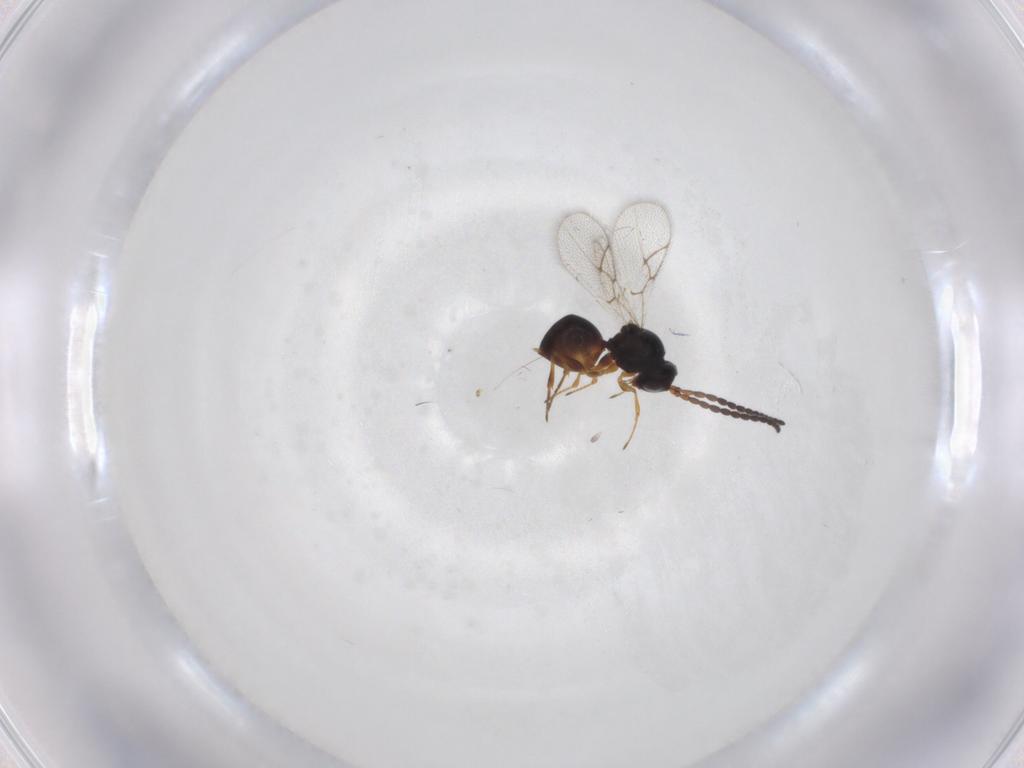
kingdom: Animalia
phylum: Arthropoda
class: Insecta
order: Hymenoptera
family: Figitidae
